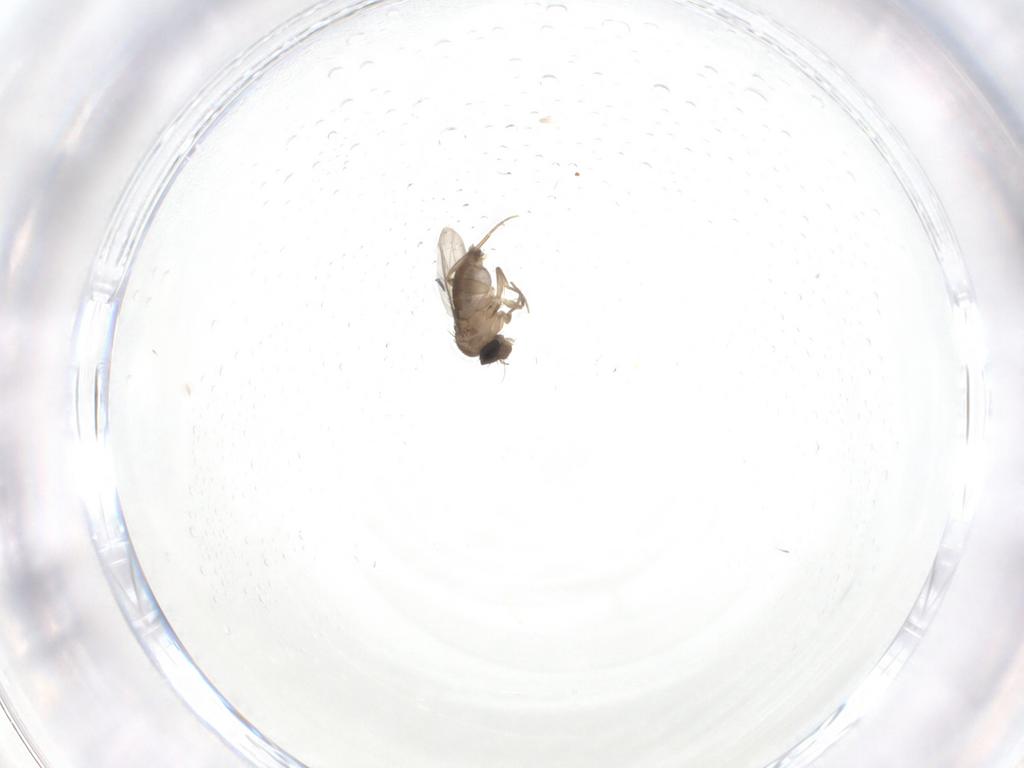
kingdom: Animalia
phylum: Arthropoda
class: Insecta
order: Diptera
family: Phoridae
